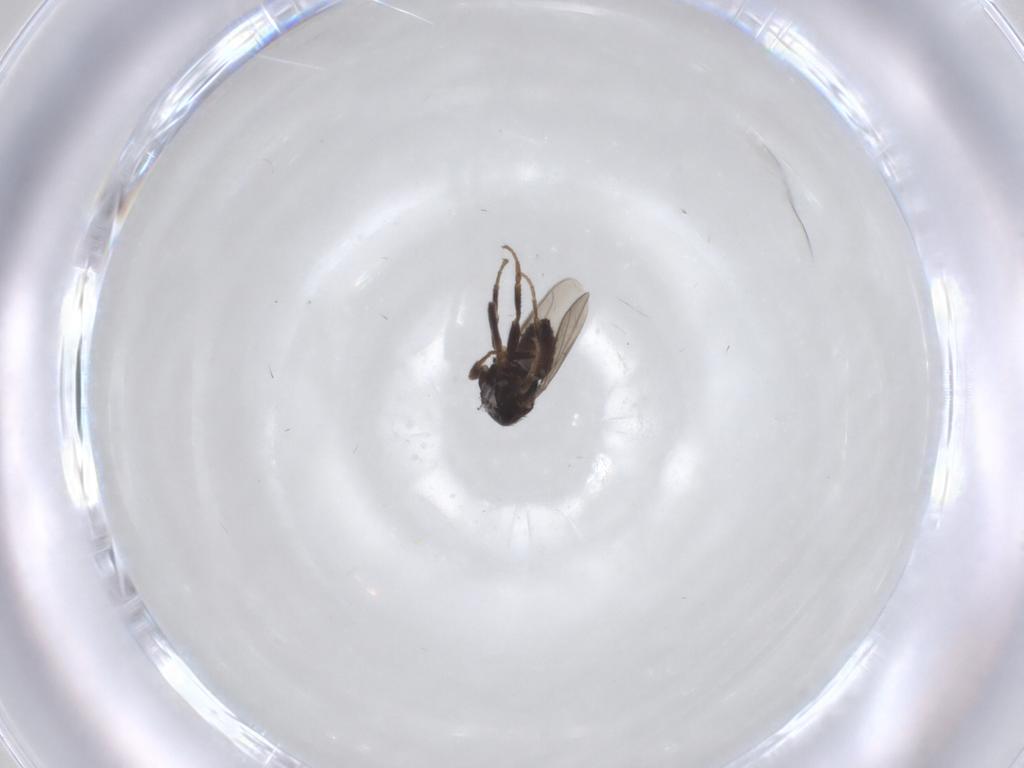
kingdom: Animalia
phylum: Arthropoda
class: Insecta
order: Diptera
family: Sphaeroceridae
